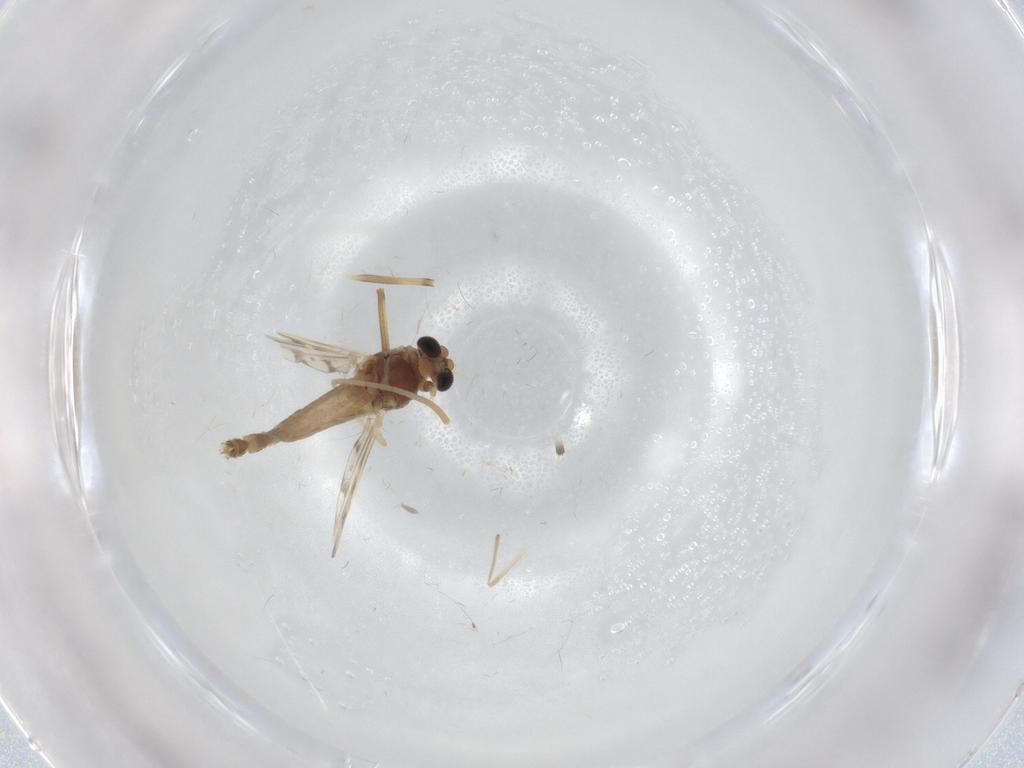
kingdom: Animalia
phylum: Arthropoda
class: Insecta
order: Diptera
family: Chironomidae
